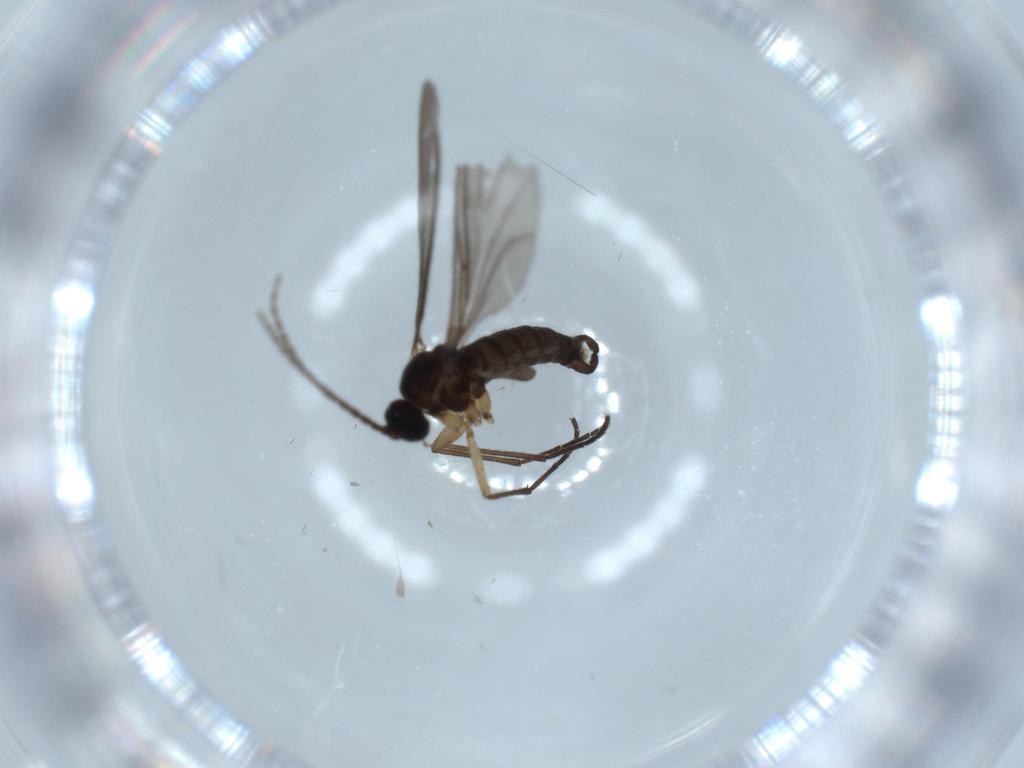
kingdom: Animalia
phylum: Arthropoda
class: Insecta
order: Diptera
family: Sciaridae
